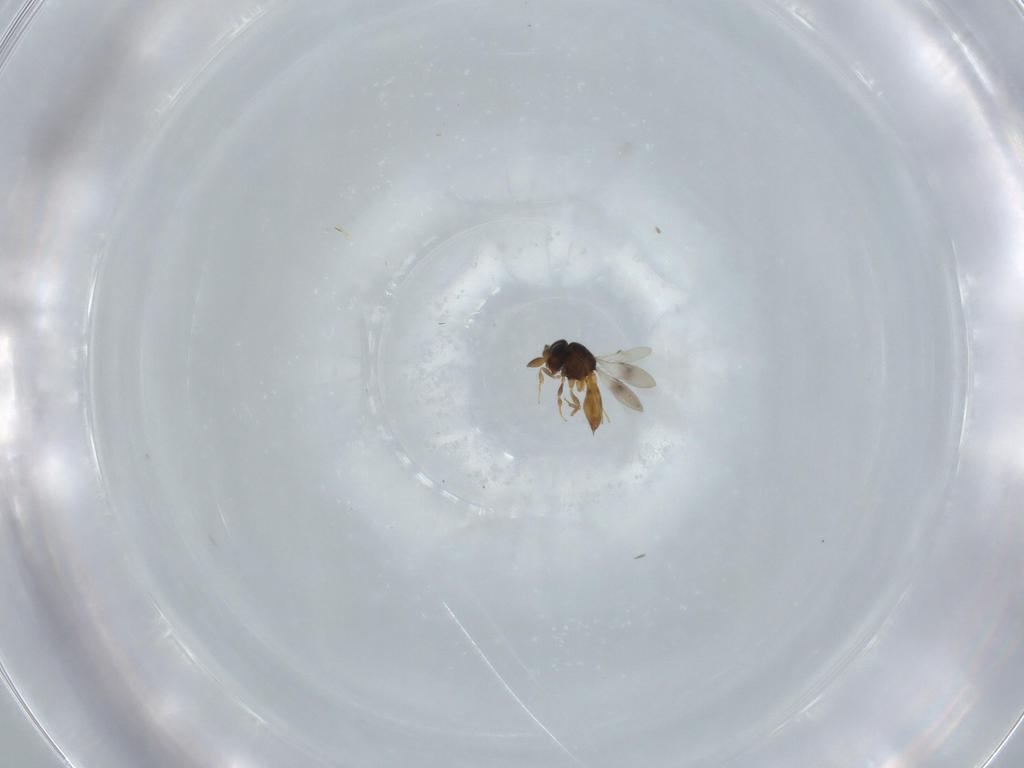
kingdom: Animalia
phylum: Arthropoda
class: Insecta
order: Hymenoptera
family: Scelionidae
